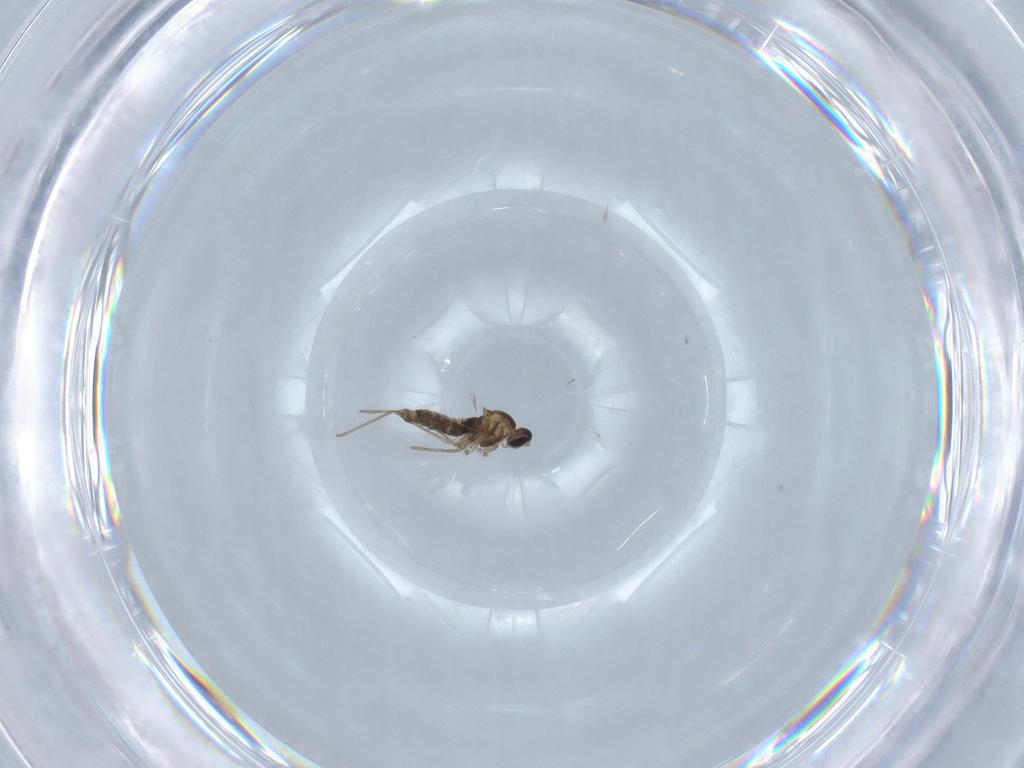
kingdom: Animalia
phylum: Arthropoda
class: Insecta
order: Diptera
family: Cecidomyiidae
